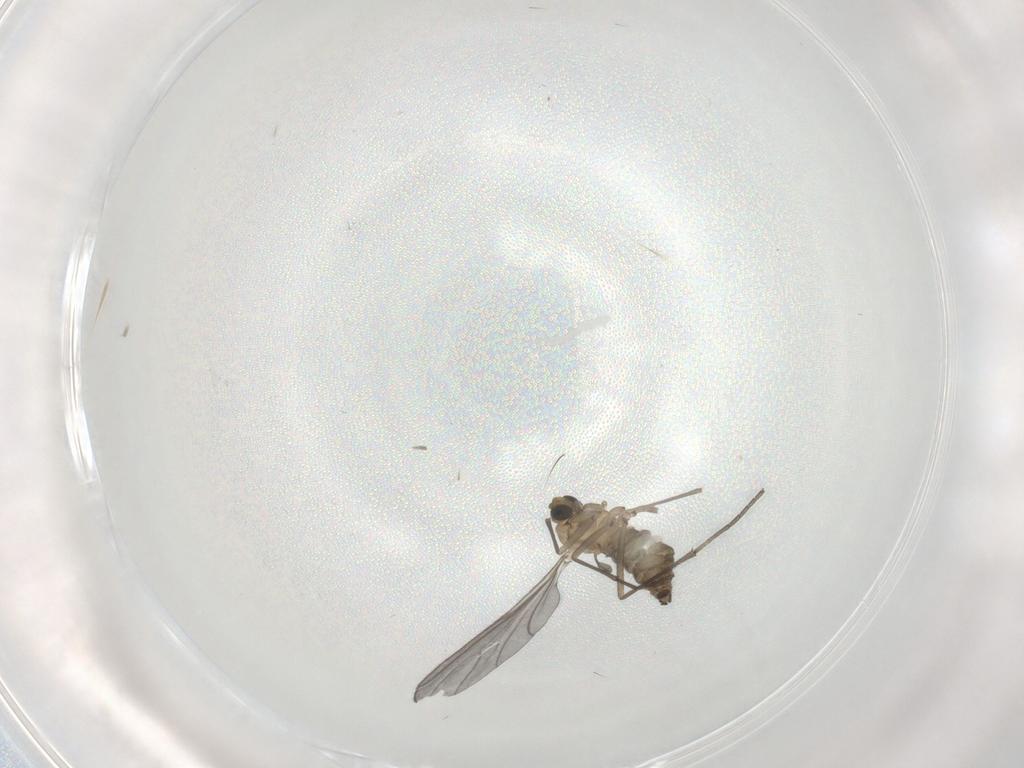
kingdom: Animalia
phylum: Arthropoda
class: Insecta
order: Diptera
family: Sciaridae
